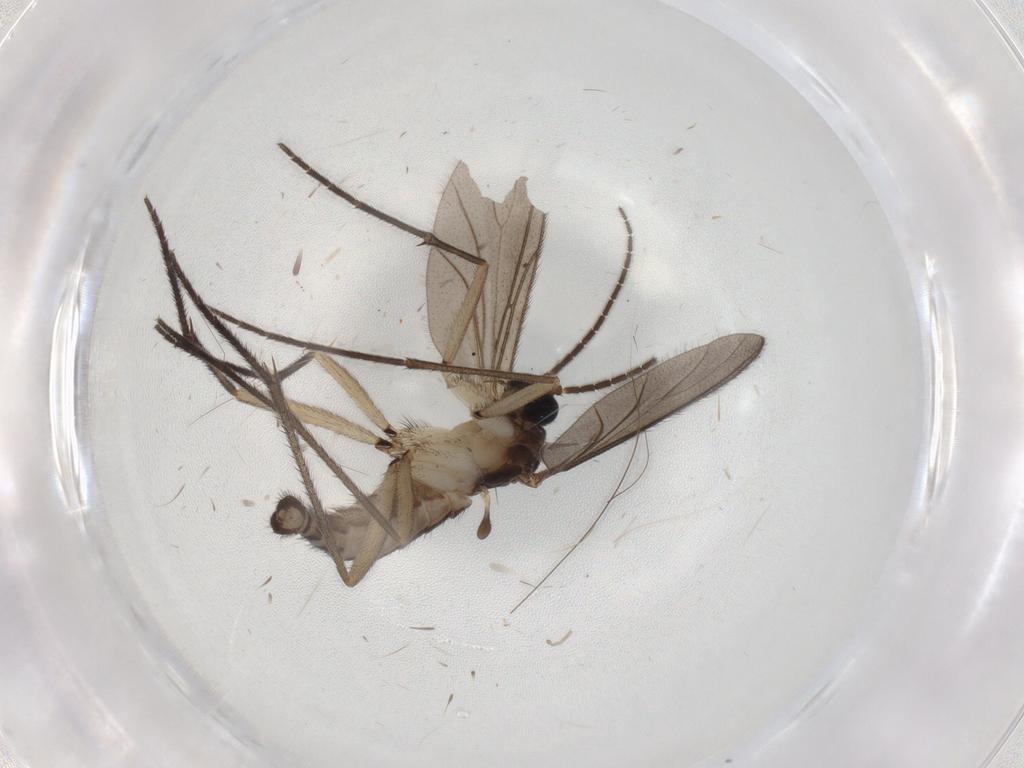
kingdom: Animalia
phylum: Arthropoda
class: Insecta
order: Diptera
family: Sciaridae
